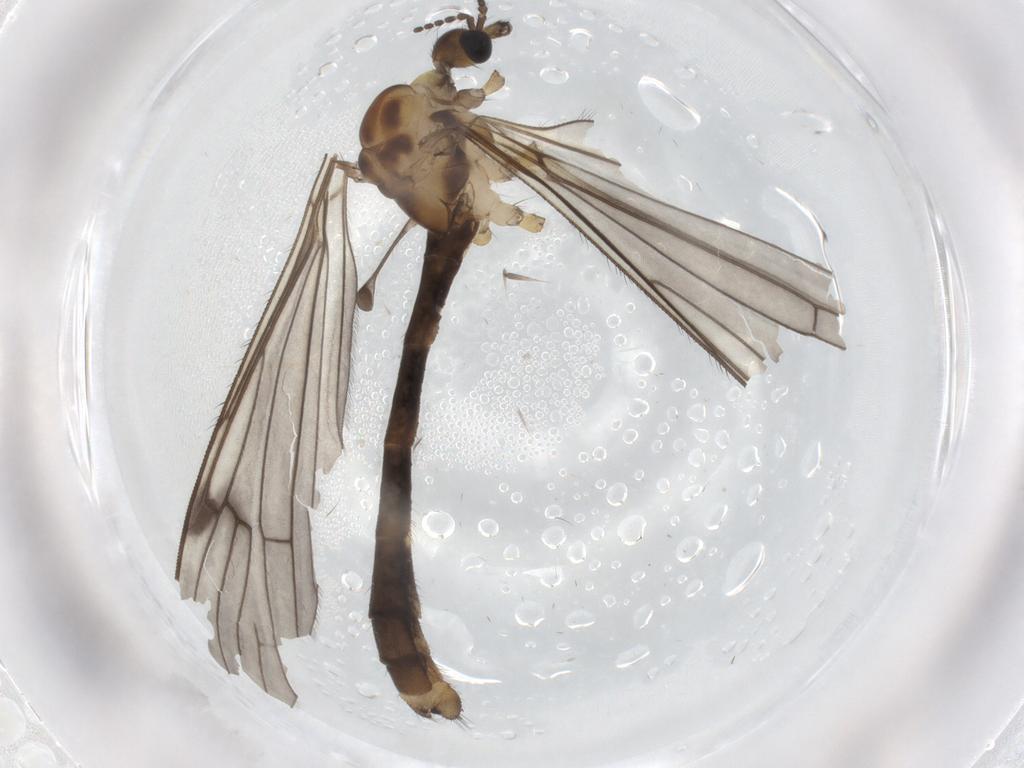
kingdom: Animalia
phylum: Arthropoda
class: Insecta
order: Diptera
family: Limoniidae
